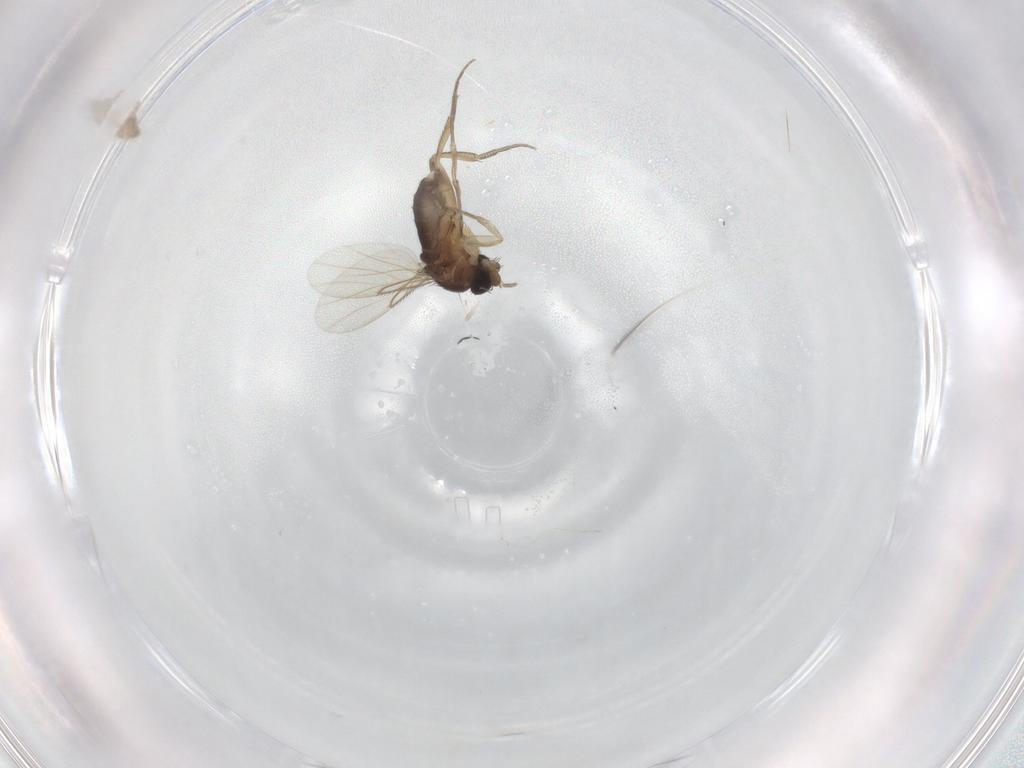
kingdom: Animalia
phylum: Arthropoda
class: Insecta
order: Diptera
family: Phoridae
